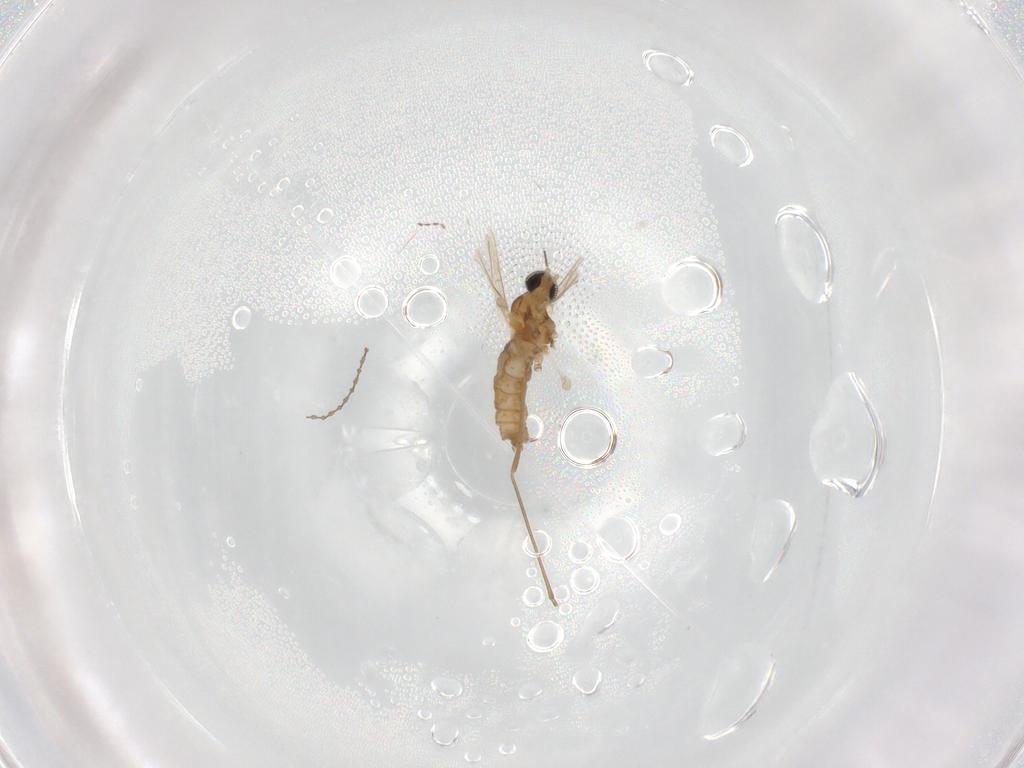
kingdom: Animalia
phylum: Arthropoda
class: Insecta
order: Diptera
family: Cecidomyiidae
